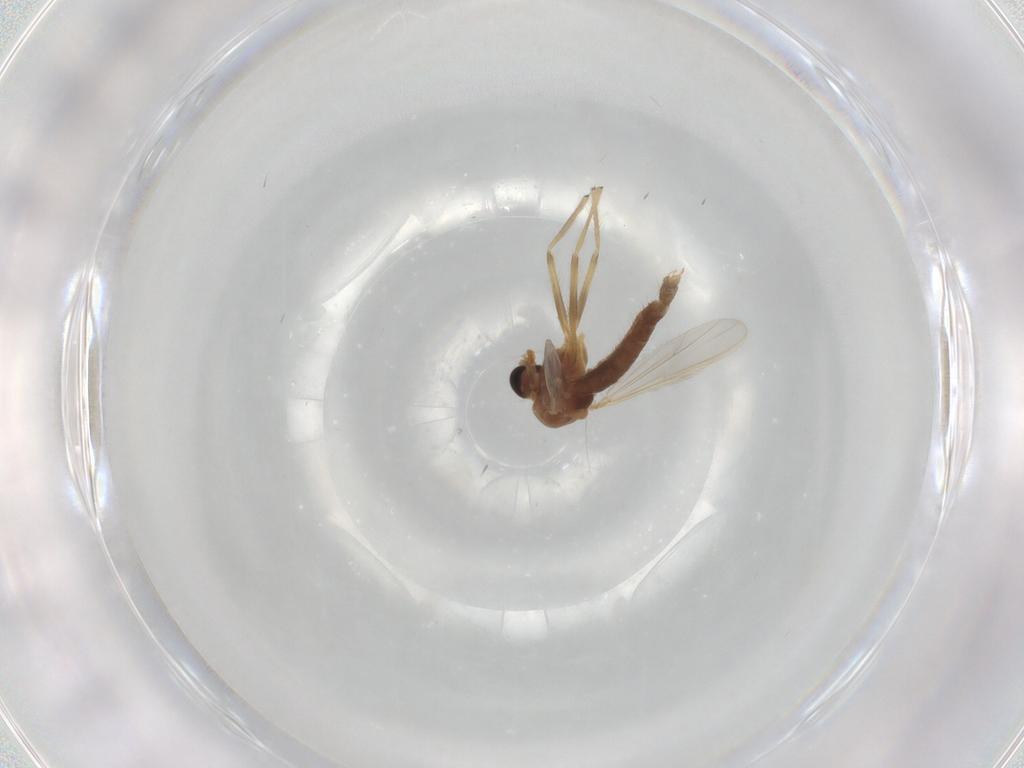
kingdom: Animalia
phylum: Arthropoda
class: Insecta
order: Diptera
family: Chironomidae
